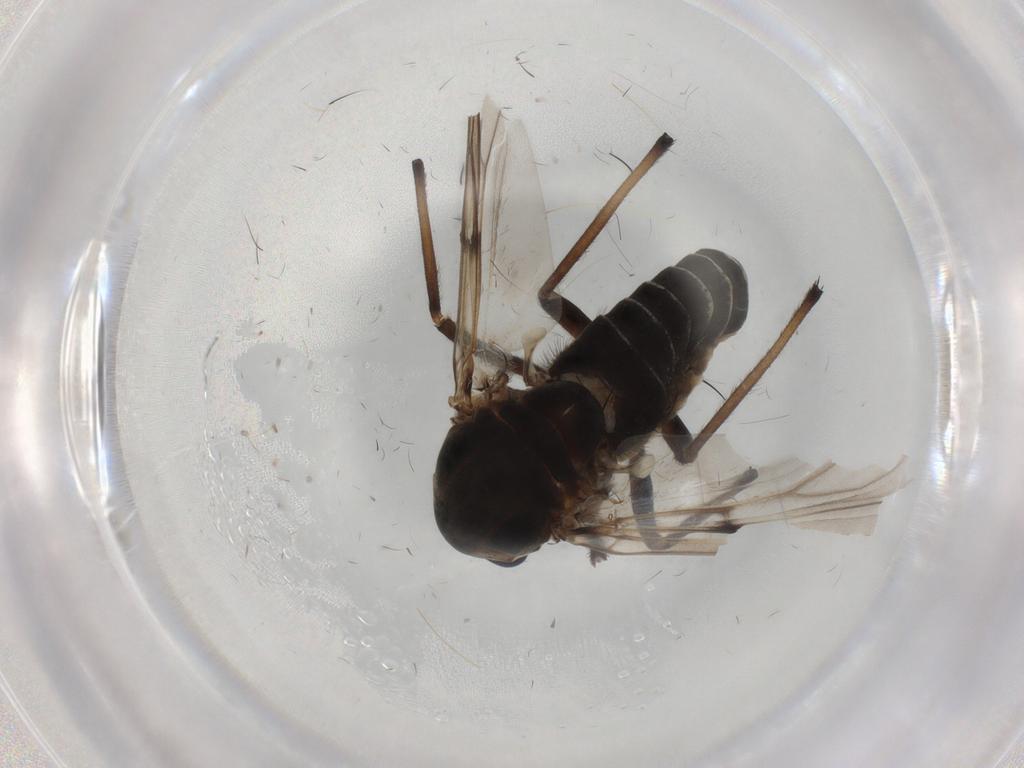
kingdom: Animalia
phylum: Arthropoda
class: Insecta
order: Diptera
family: Chironomidae
